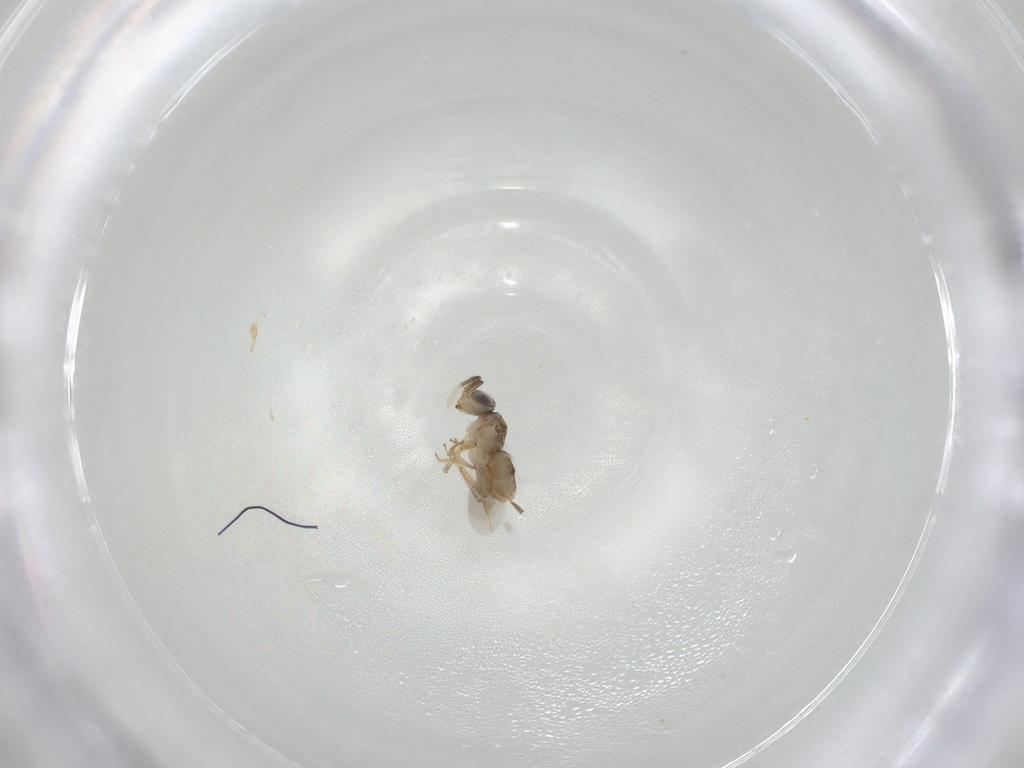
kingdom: Animalia
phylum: Arthropoda
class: Insecta
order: Hymenoptera
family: Encyrtidae
